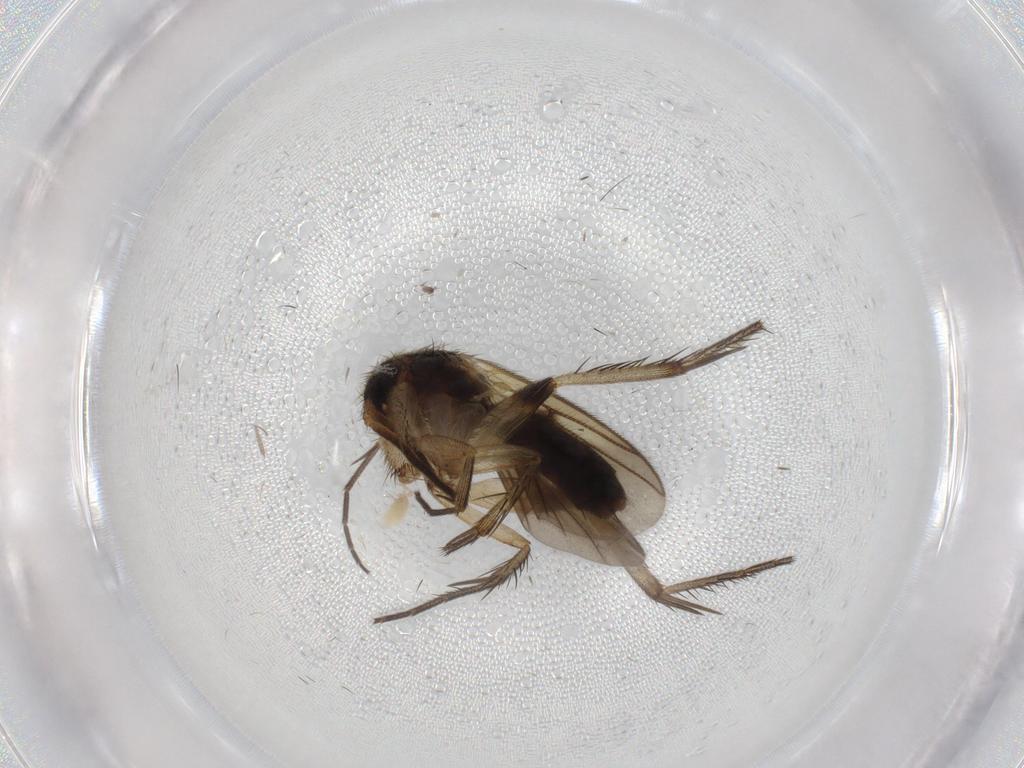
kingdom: Animalia
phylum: Arthropoda
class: Insecta
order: Diptera
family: Mycetophilidae
